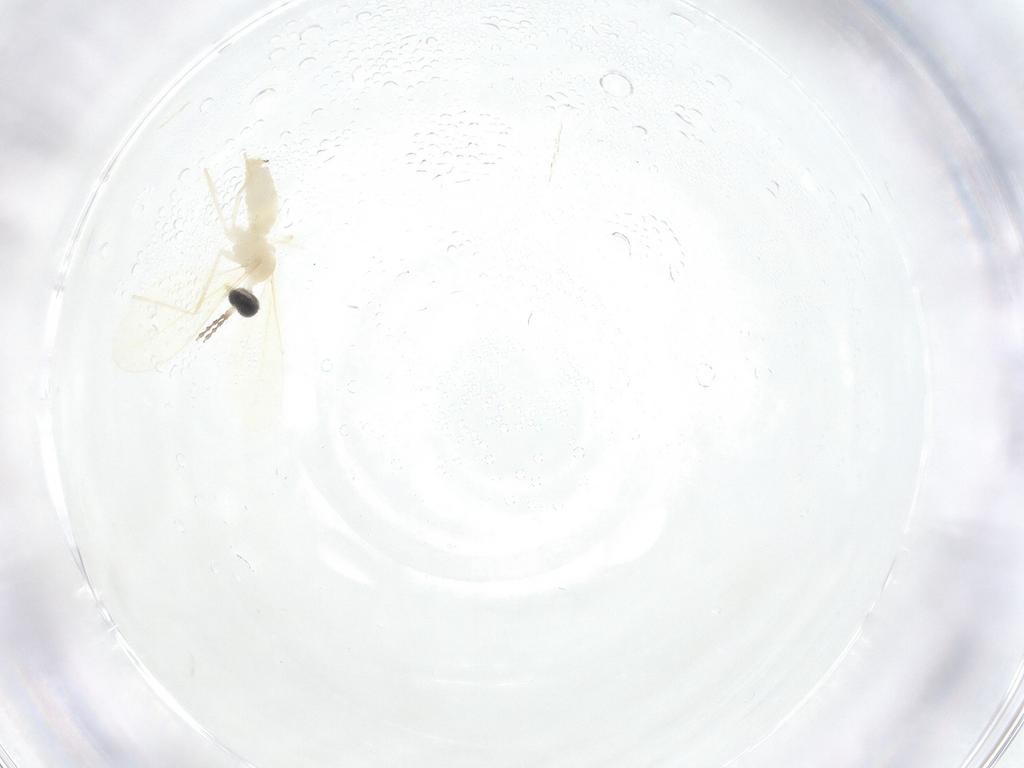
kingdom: Animalia
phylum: Arthropoda
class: Insecta
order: Diptera
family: Cecidomyiidae
